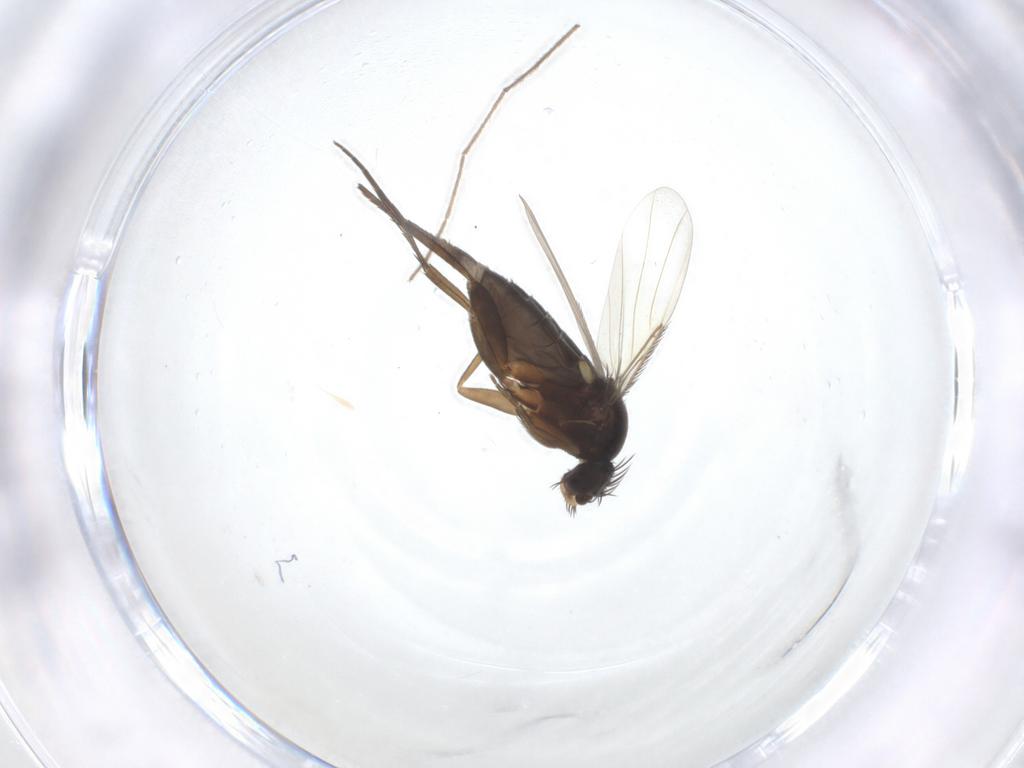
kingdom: Animalia
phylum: Arthropoda
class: Insecta
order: Diptera
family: Phoridae
